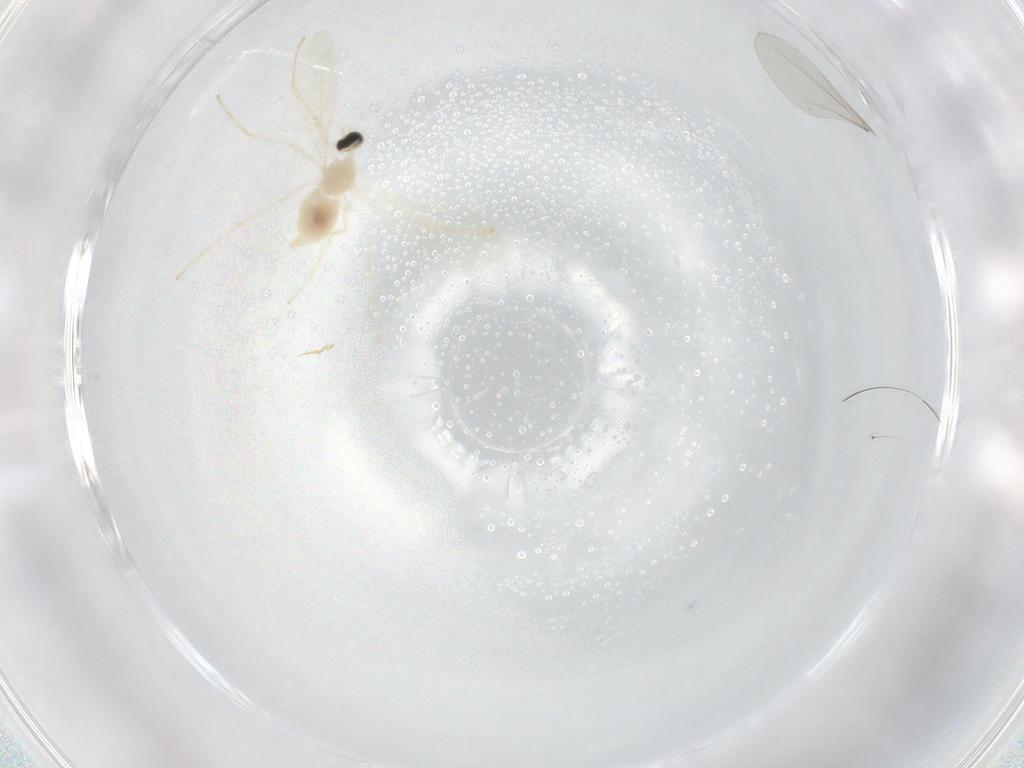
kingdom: Animalia
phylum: Arthropoda
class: Insecta
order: Diptera
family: Cecidomyiidae
